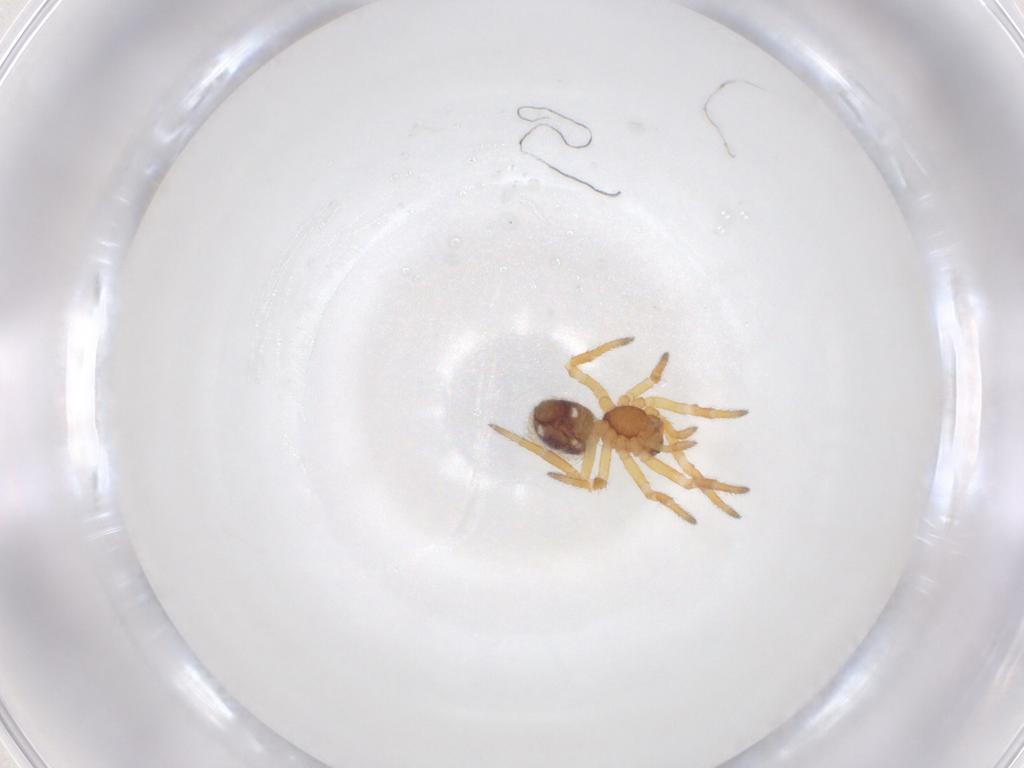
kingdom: Animalia
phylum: Arthropoda
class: Arachnida
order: Araneae
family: Theridiidae
